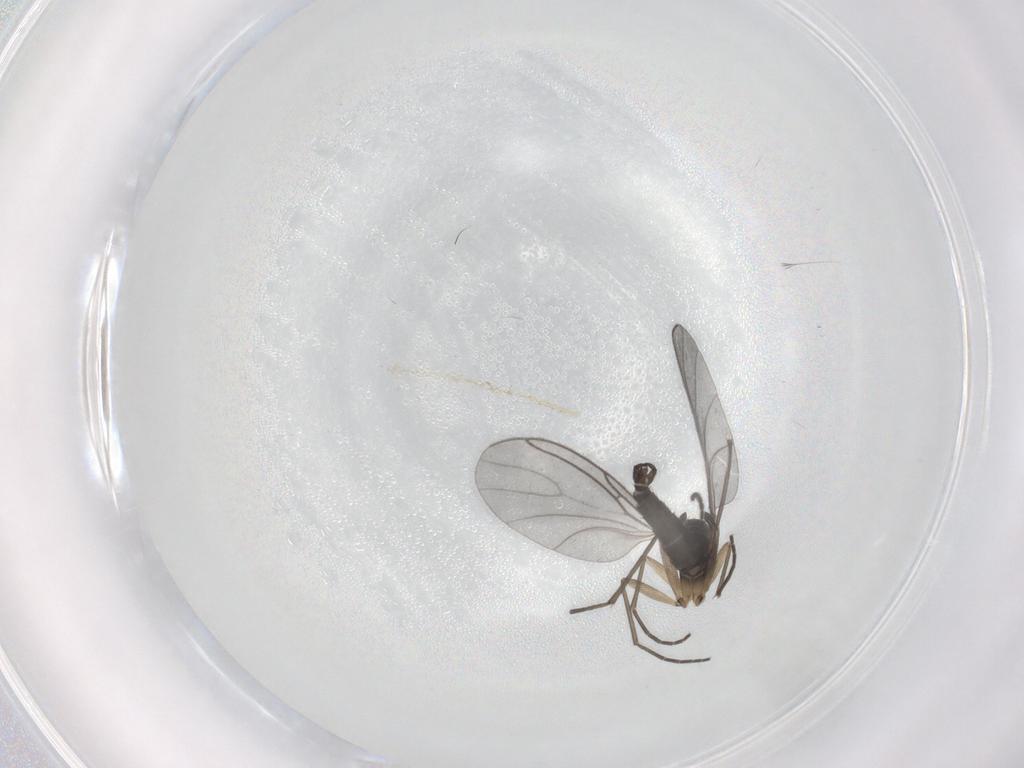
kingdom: Animalia
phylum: Arthropoda
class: Insecta
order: Diptera
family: Sciaridae
